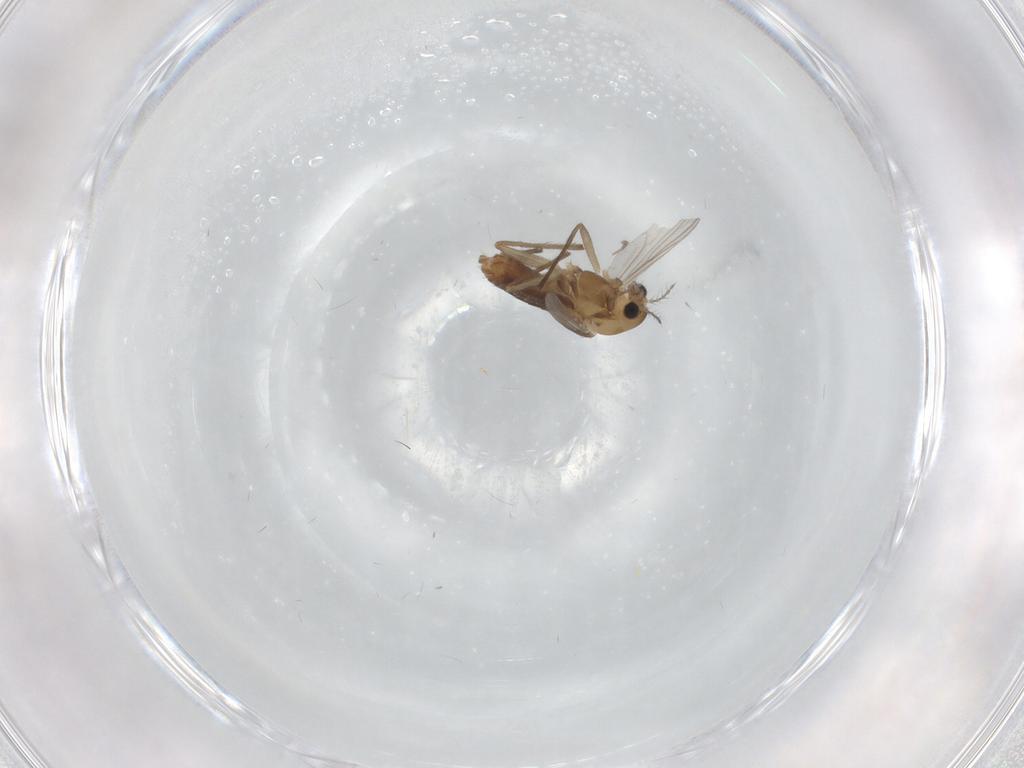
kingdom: Animalia
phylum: Arthropoda
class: Insecta
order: Diptera
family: Chironomidae
